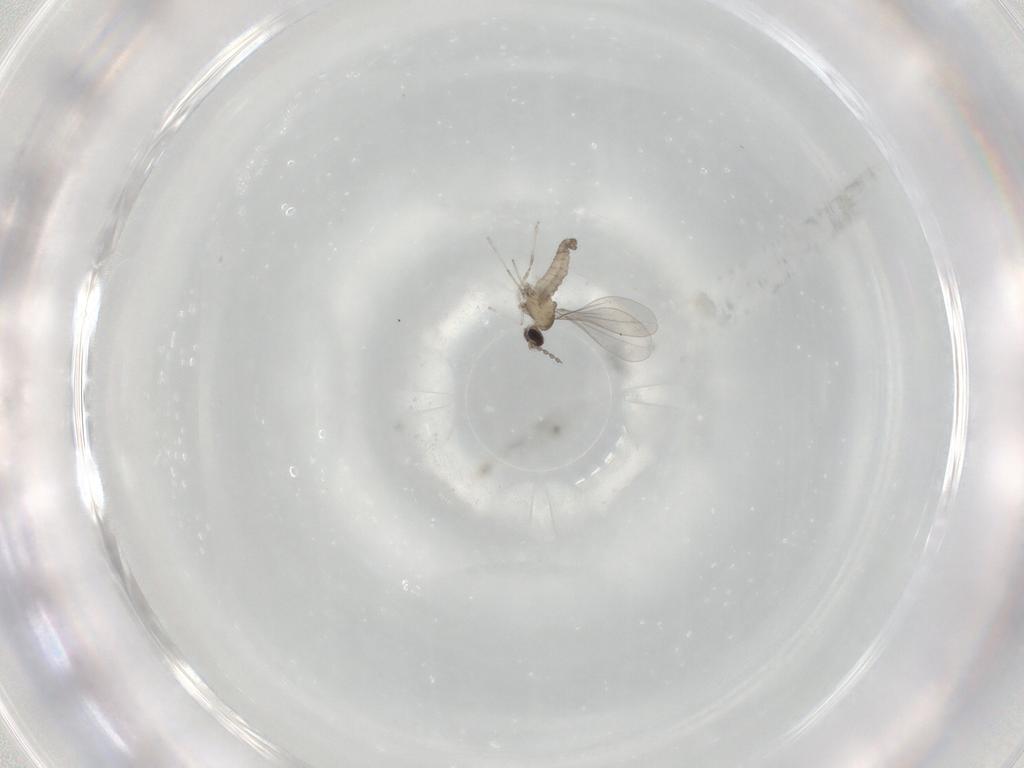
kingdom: Animalia
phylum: Arthropoda
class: Insecta
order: Diptera
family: Cecidomyiidae
